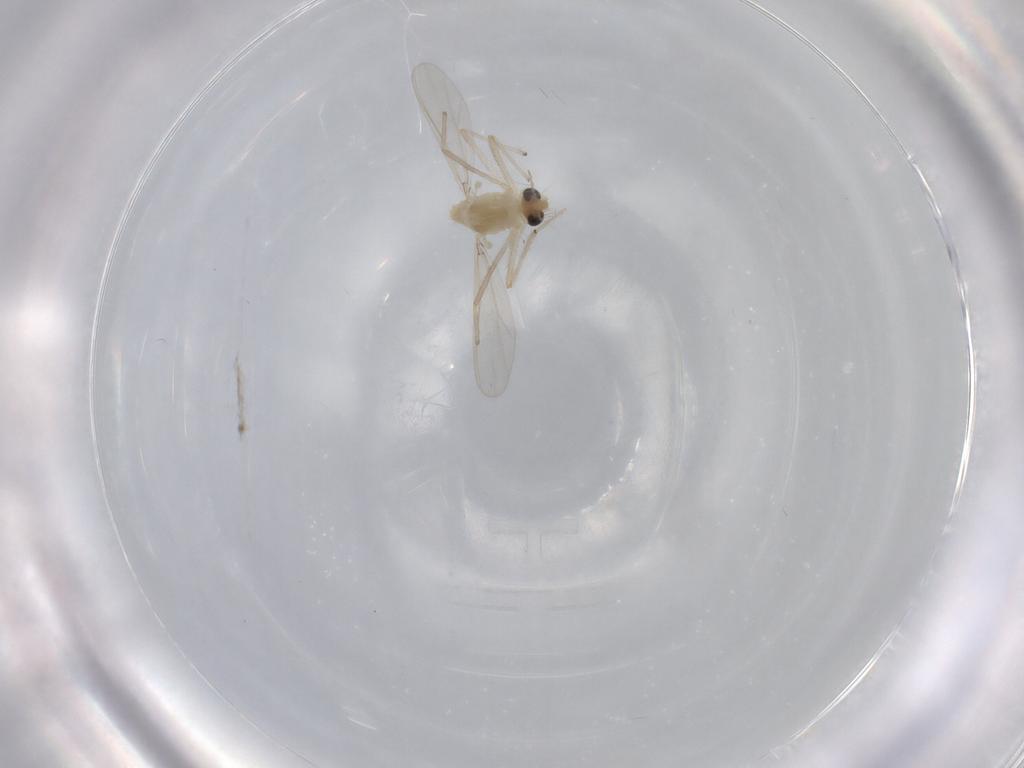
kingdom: Animalia
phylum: Arthropoda
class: Insecta
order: Diptera
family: Chironomidae
